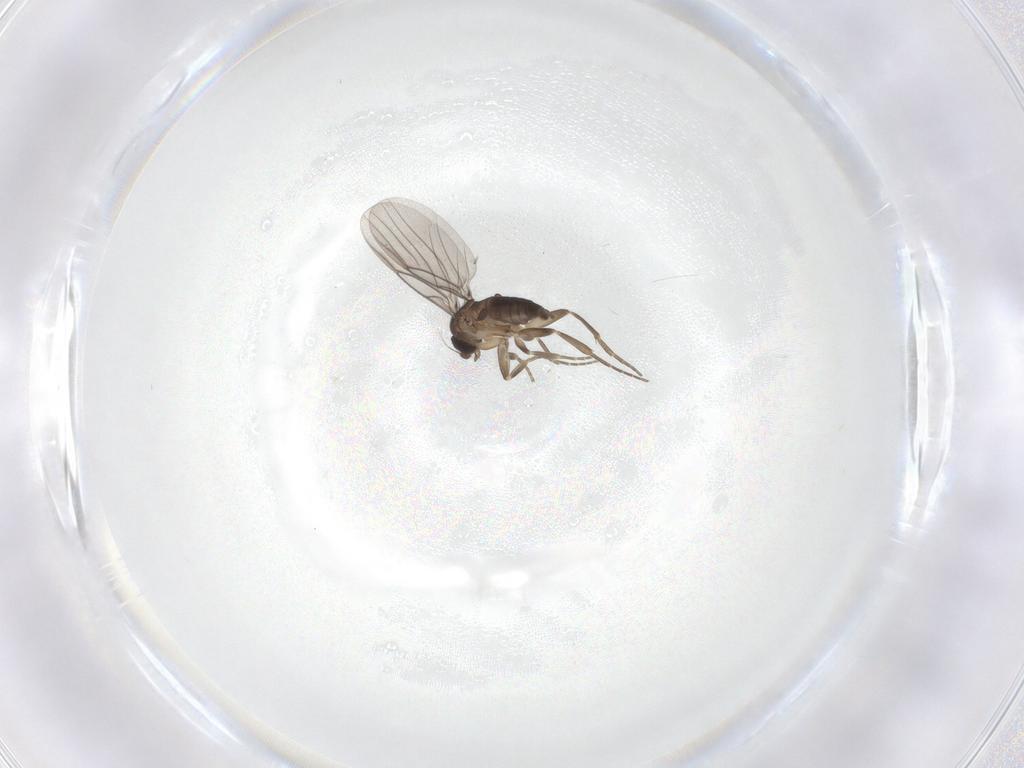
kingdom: Animalia
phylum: Arthropoda
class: Insecta
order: Diptera
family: Phoridae
